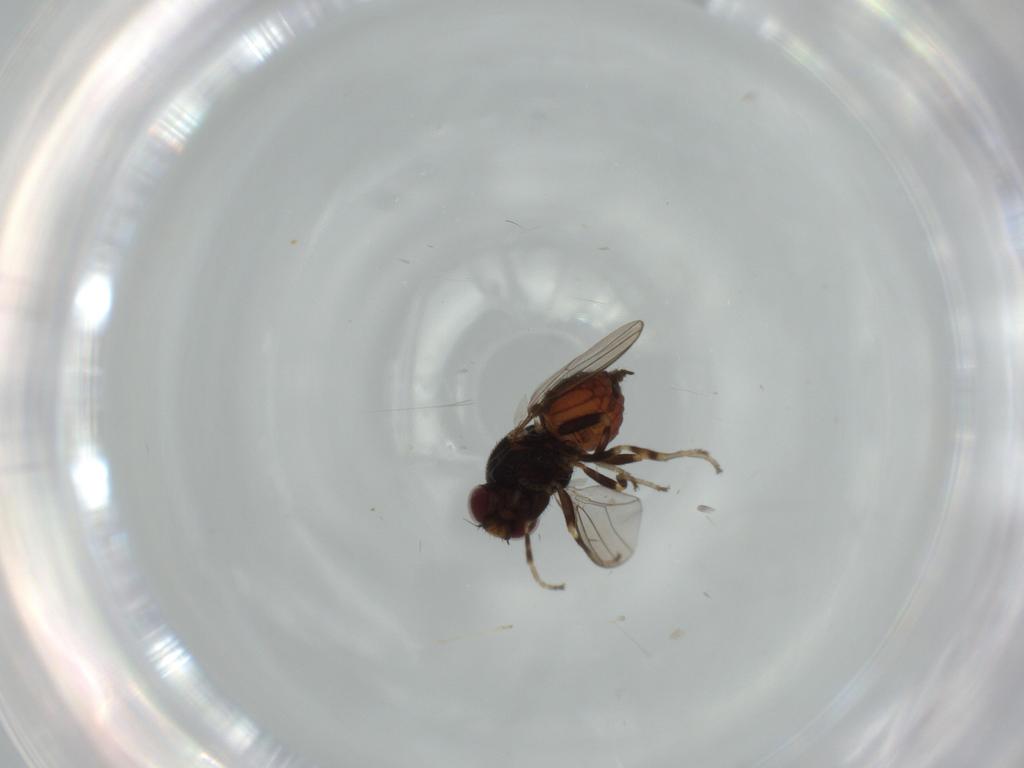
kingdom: Animalia
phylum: Arthropoda
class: Insecta
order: Diptera
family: Chloropidae
